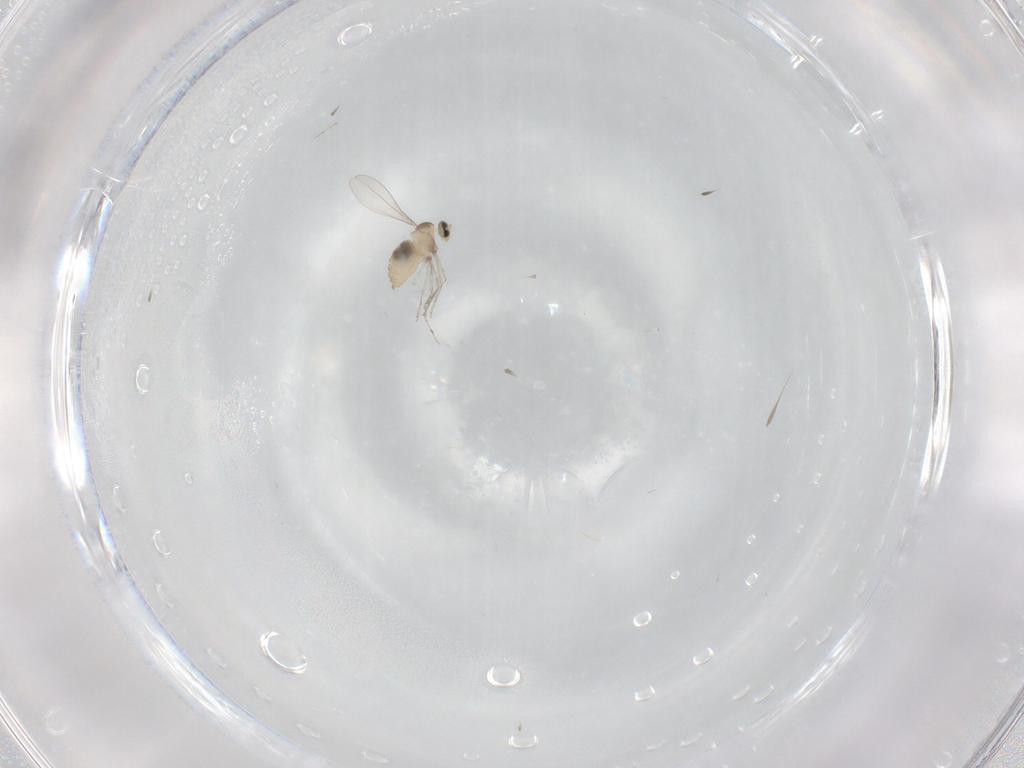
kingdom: Animalia
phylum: Arthropoda
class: Insecta
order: Diptera
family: Cecidomyiidae
